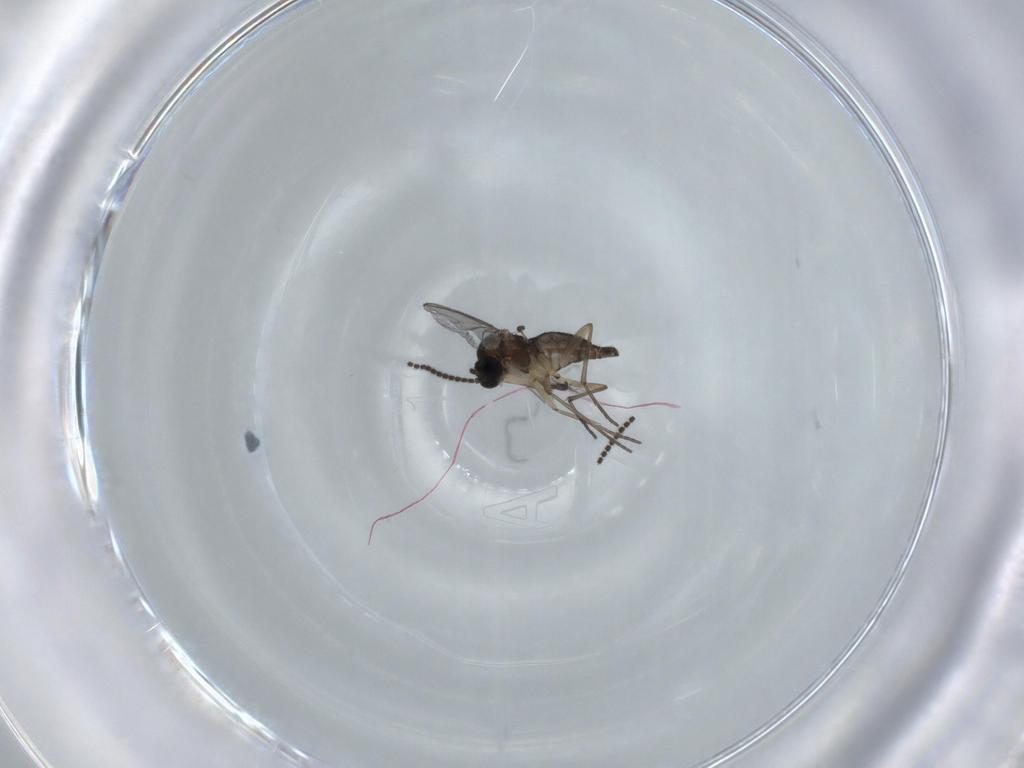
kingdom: Animalia
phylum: Arthropoda
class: Insecta
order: Diptera
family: Sciaridae
